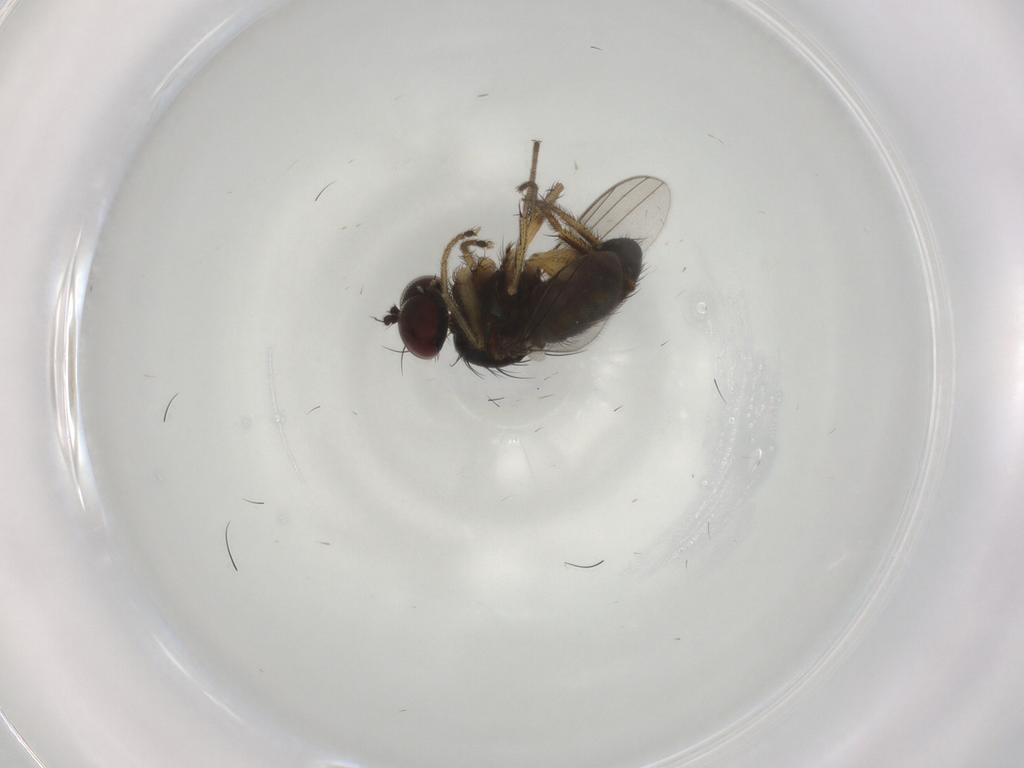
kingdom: Animalia
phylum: Arthropoda
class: Insecta
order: Diptera
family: Dolichopodidae
